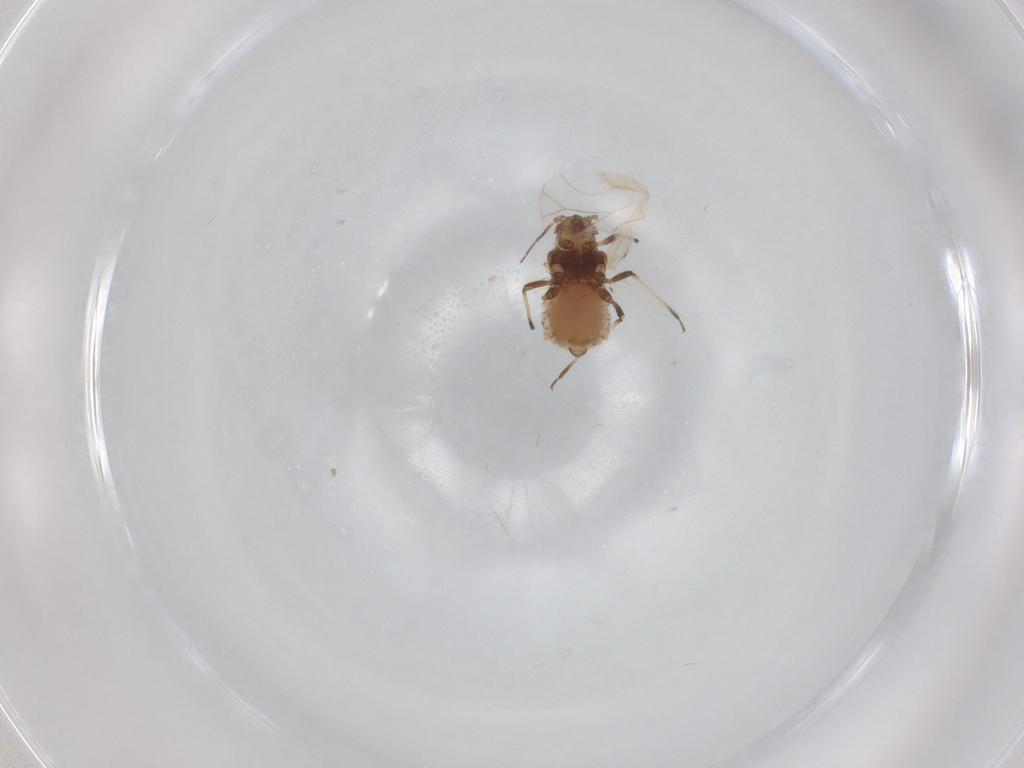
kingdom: Animalia
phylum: Arthropoda
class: Insecta
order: Hemiptera
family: Aphididae
